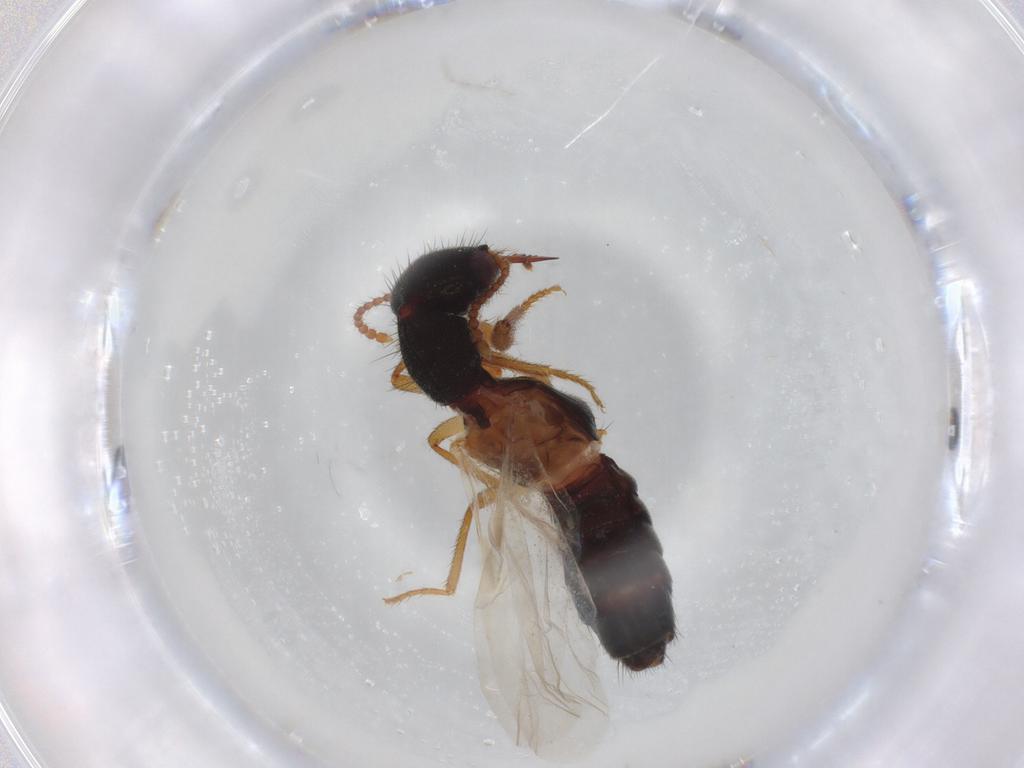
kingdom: Animalia
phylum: Arthropoda
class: Insecta
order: Coleoptera
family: Staphylinidae
